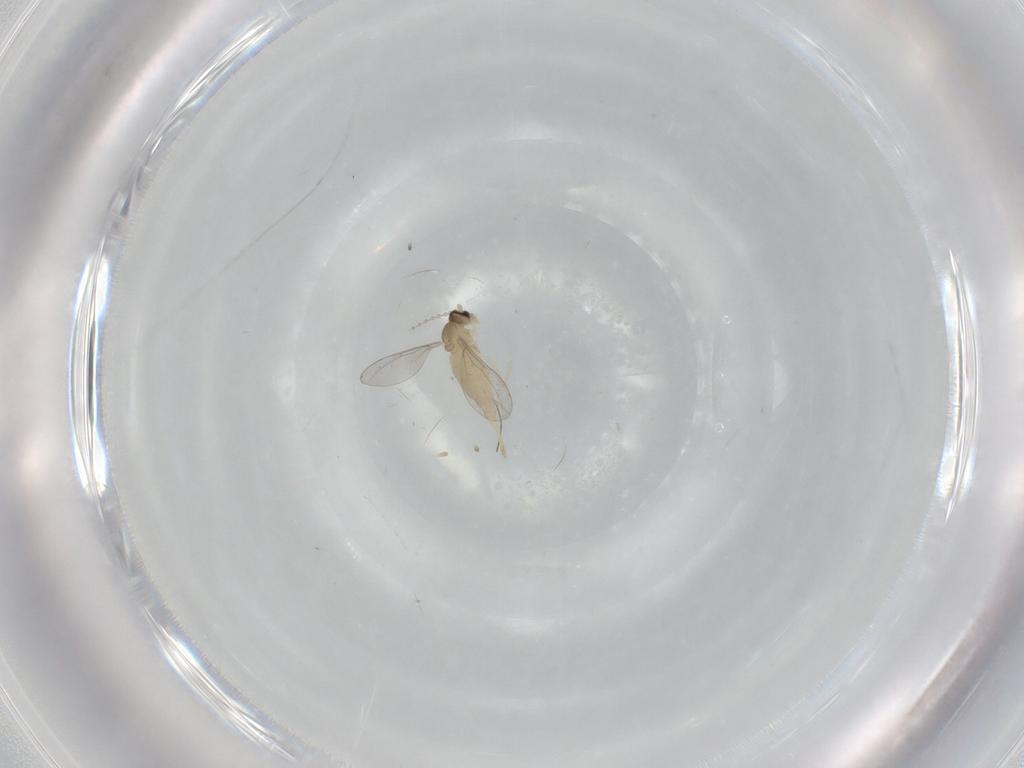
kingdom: Animalia
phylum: Arthropoda
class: Insecta
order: Diptera
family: Cecidomyiidae
